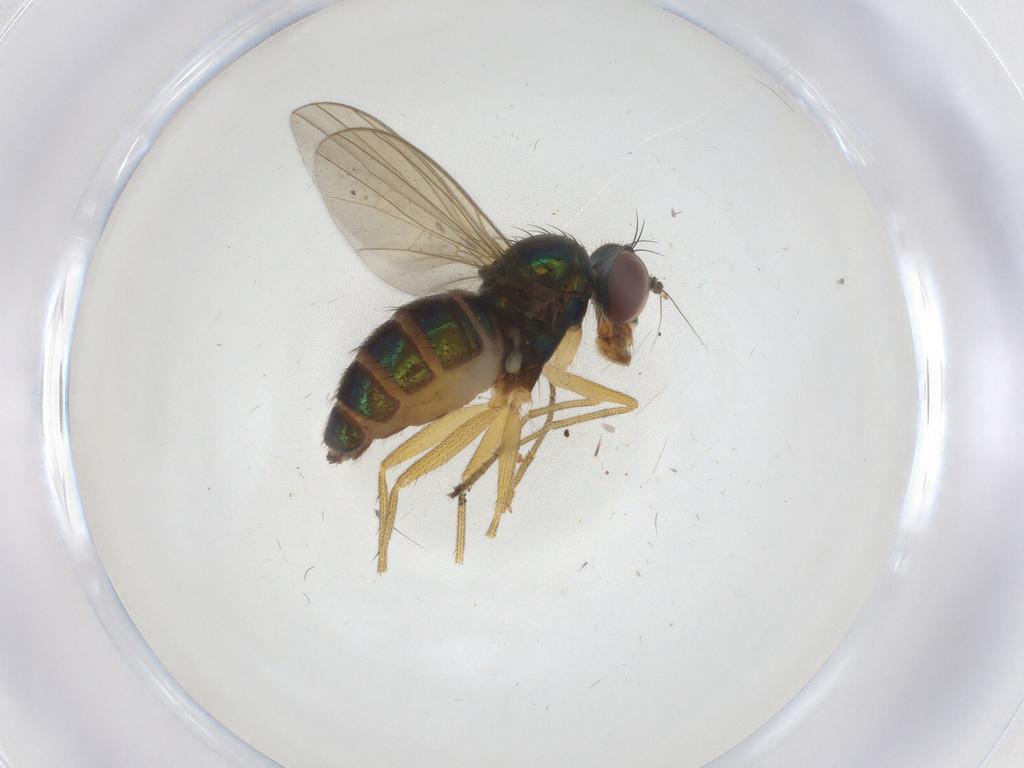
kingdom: Animalia
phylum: Arthropoda
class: Insecta
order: Diptera
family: Dolichopodidae
